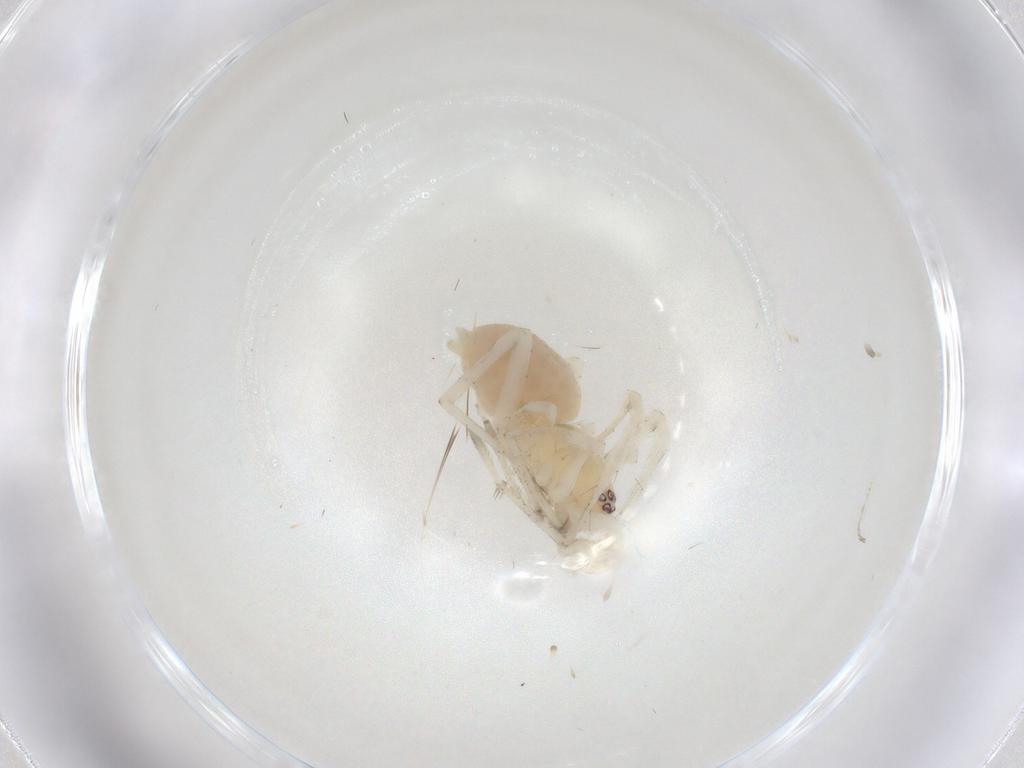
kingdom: Animalia
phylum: Arthropoda
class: Arachnida
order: Araneae
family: Anyphaenidae
